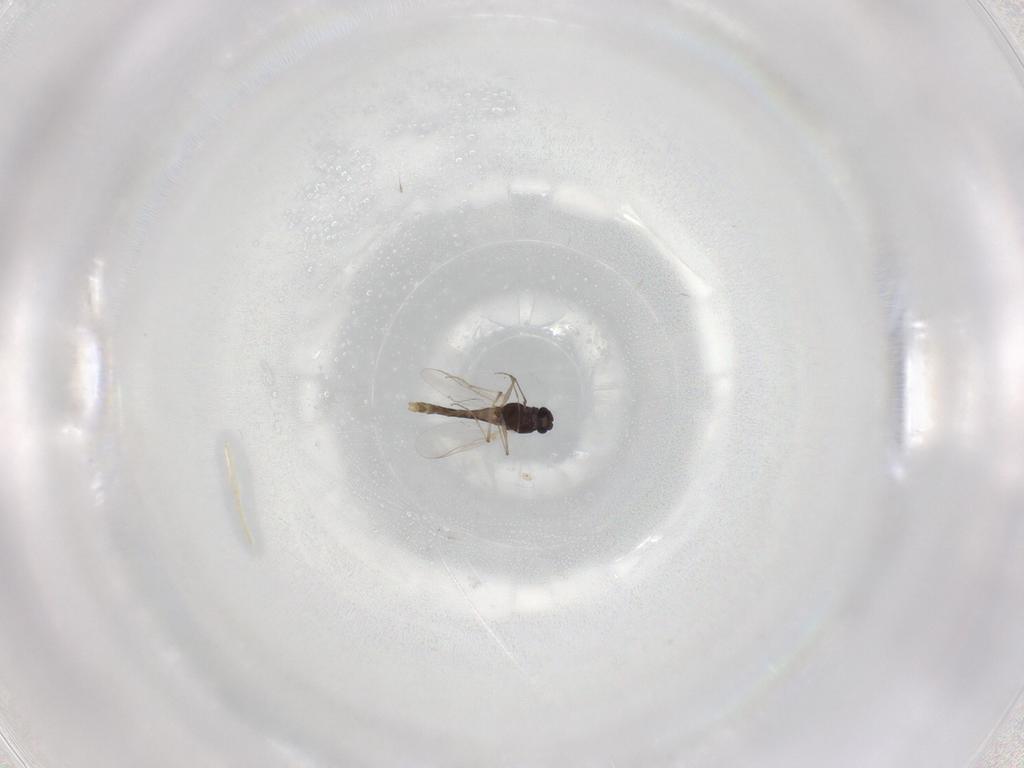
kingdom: Animalia
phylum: Arthropoda
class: Insecta
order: Diptera
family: Chironomidae
